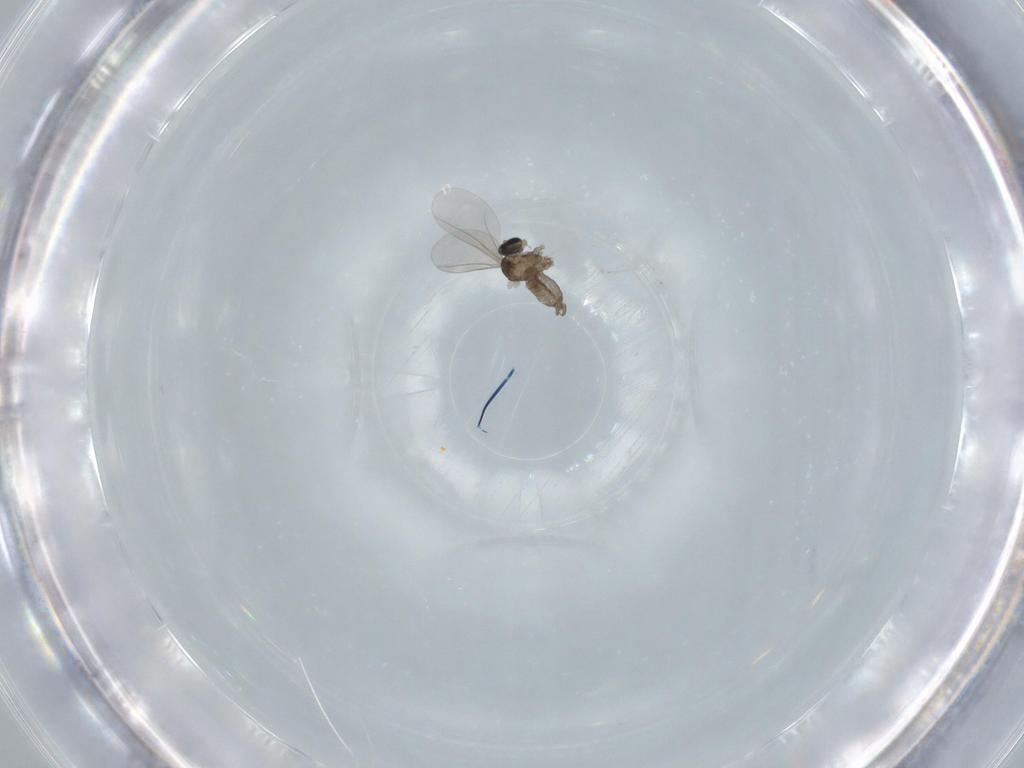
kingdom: Animalia
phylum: Arthropoda
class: Insecta
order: Diptera
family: Cecidomyiidae
